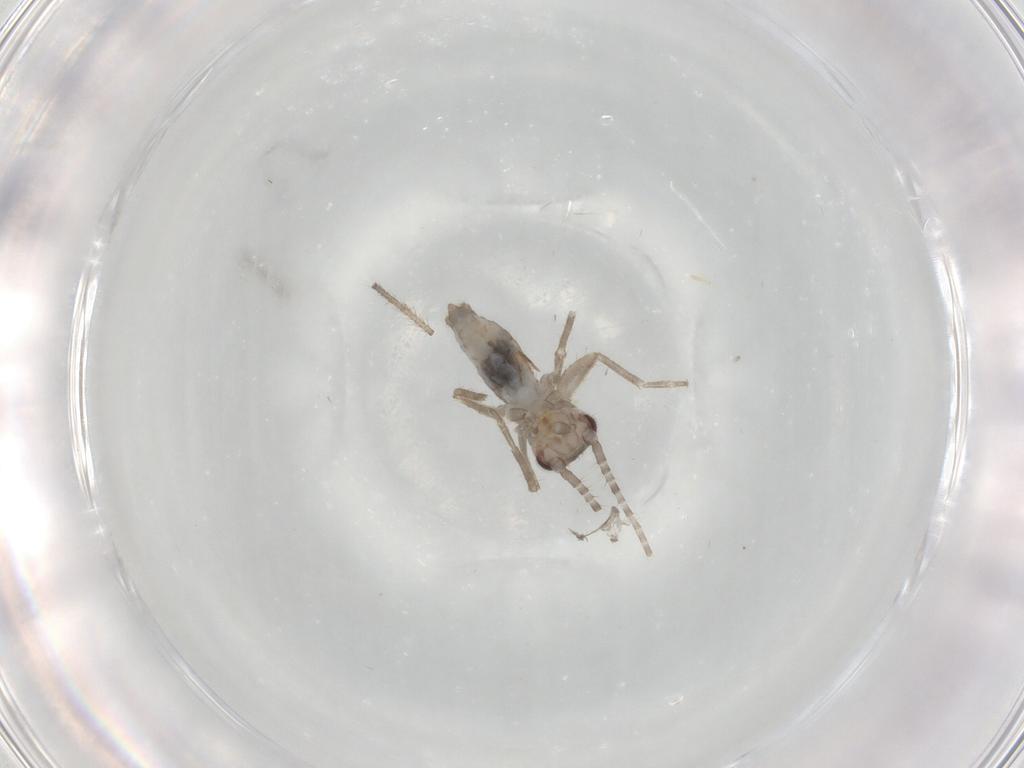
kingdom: Animalia
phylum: Arthropoda
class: Insecta
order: Orthoptera
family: Mogoplistidae
